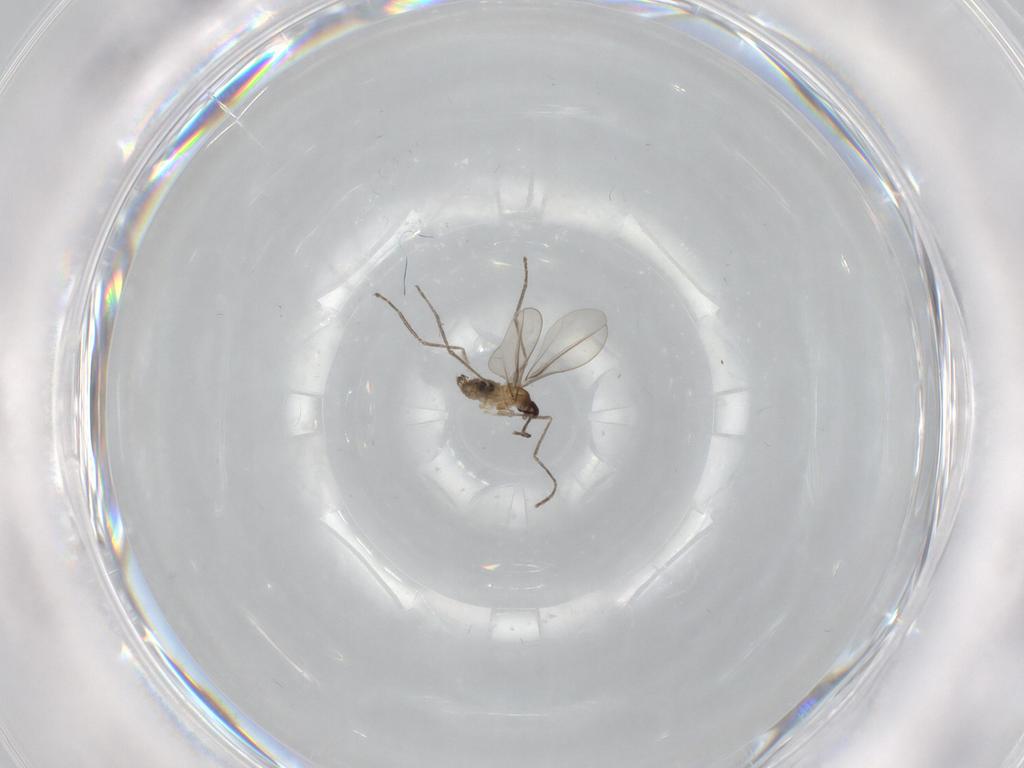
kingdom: Animalia
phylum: Arthropoda
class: Insecta
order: Diptera
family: Cecidomyiidae
